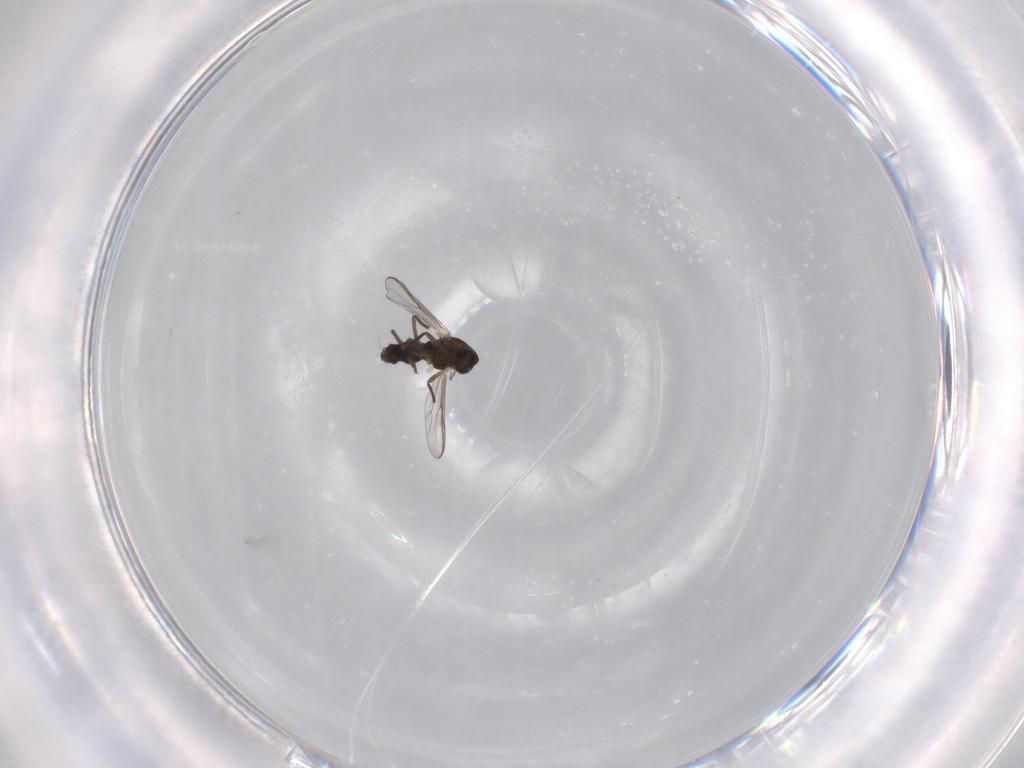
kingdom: Animalia
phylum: Arthropoda
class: Insecta
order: Diptera
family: Chironomidae
